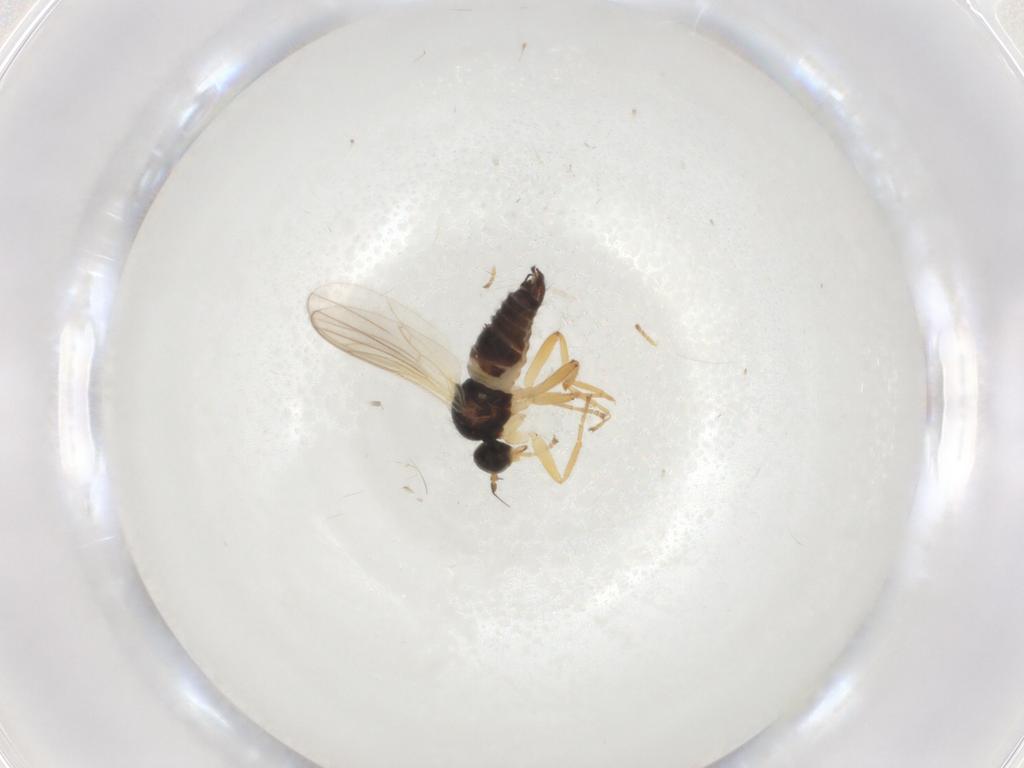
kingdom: Animalia
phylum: Arthropoda
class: Insecta
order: Diptera
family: Hybotidae
